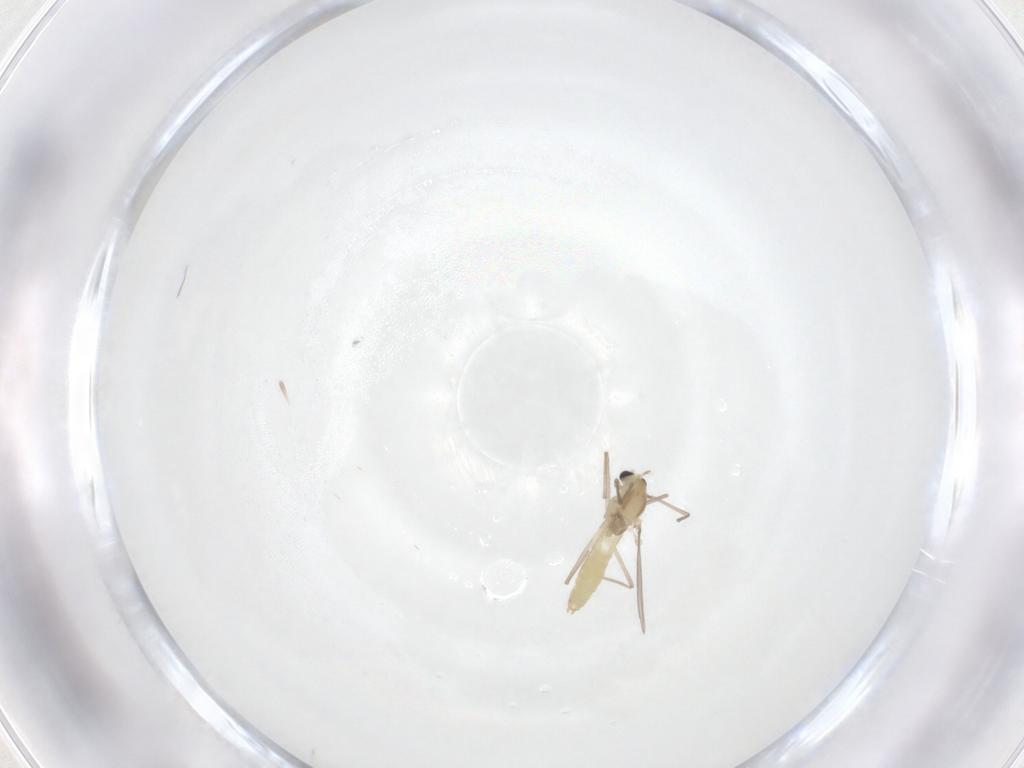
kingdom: Animalia
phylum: Arthropoda
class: Insecta
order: Diptera
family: Chironomidae
